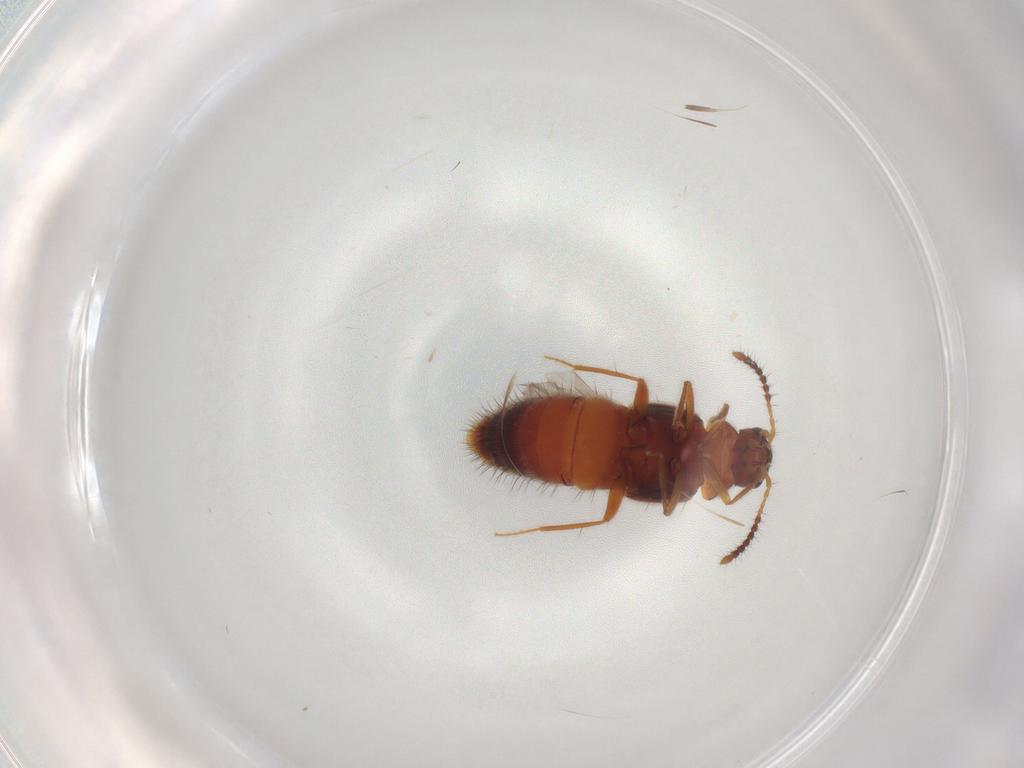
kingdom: Animalia
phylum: Arthropoda
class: Insecta
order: Coleoptera
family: Staphylinidae
